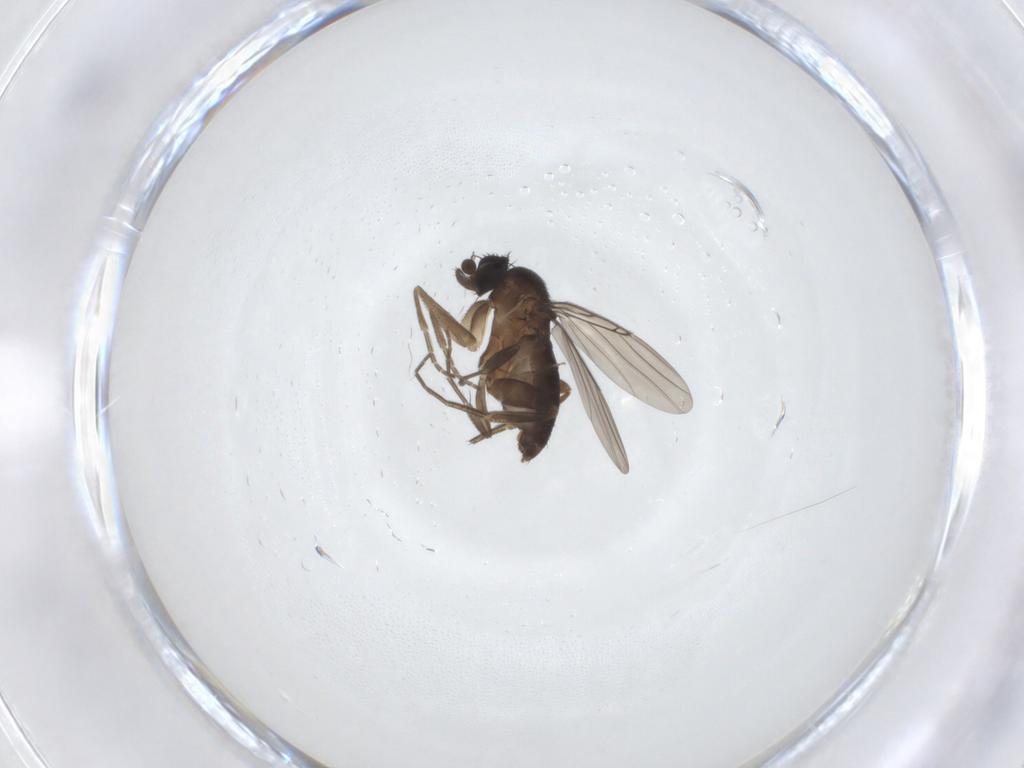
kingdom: Animalia
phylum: Arthropoda
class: Insecta
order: Diptera
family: Phoridae
